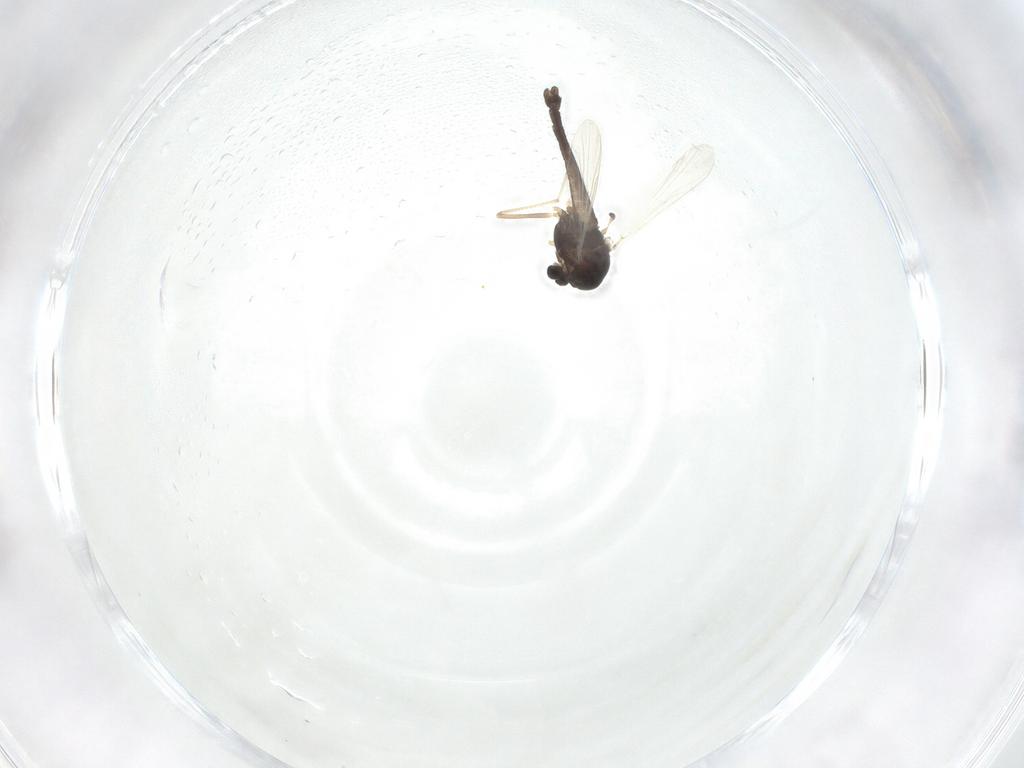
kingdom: Animalia
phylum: Arthropoda
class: Insecta
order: Diptera
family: Chironomidae
